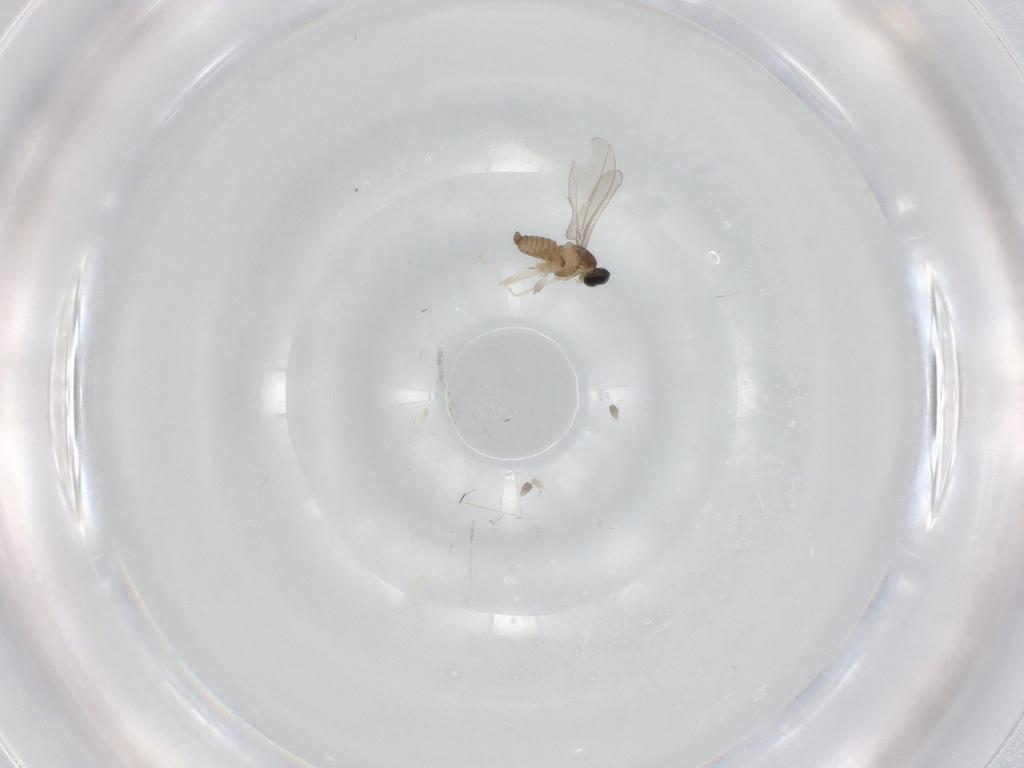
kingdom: Animalia
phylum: Arthropoda
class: Insecta
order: Diptera
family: Cecidomyiidae
